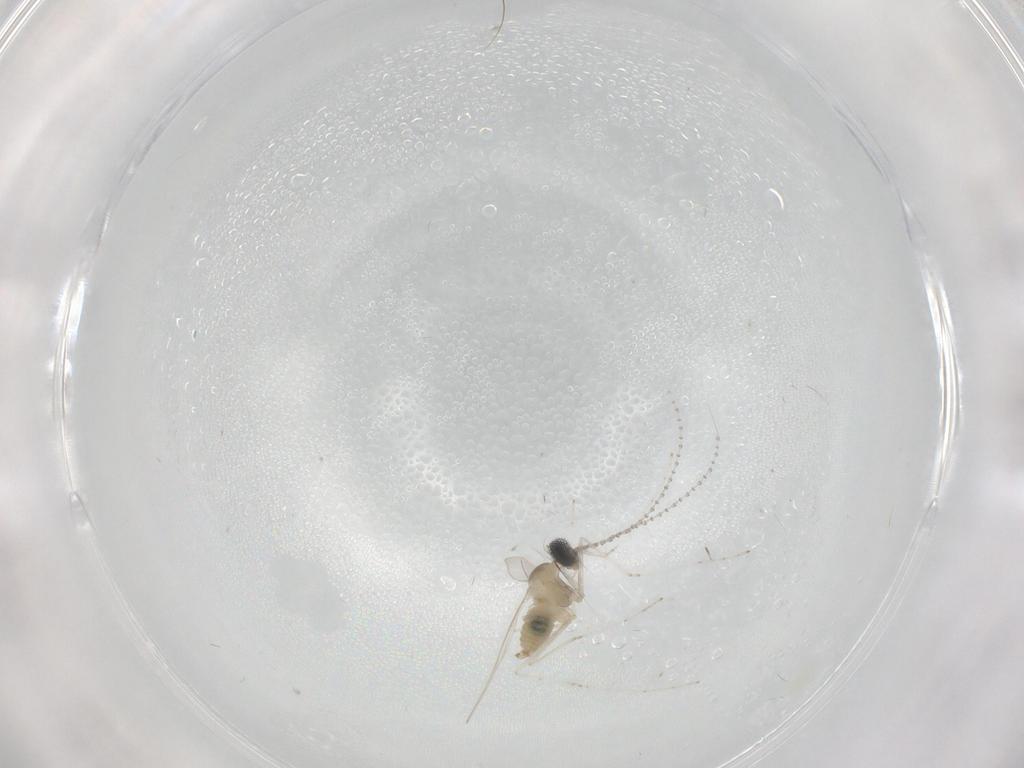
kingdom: Animalia
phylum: Arthropoda
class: Insecta
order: Diptera
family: Cecidomyiidae
